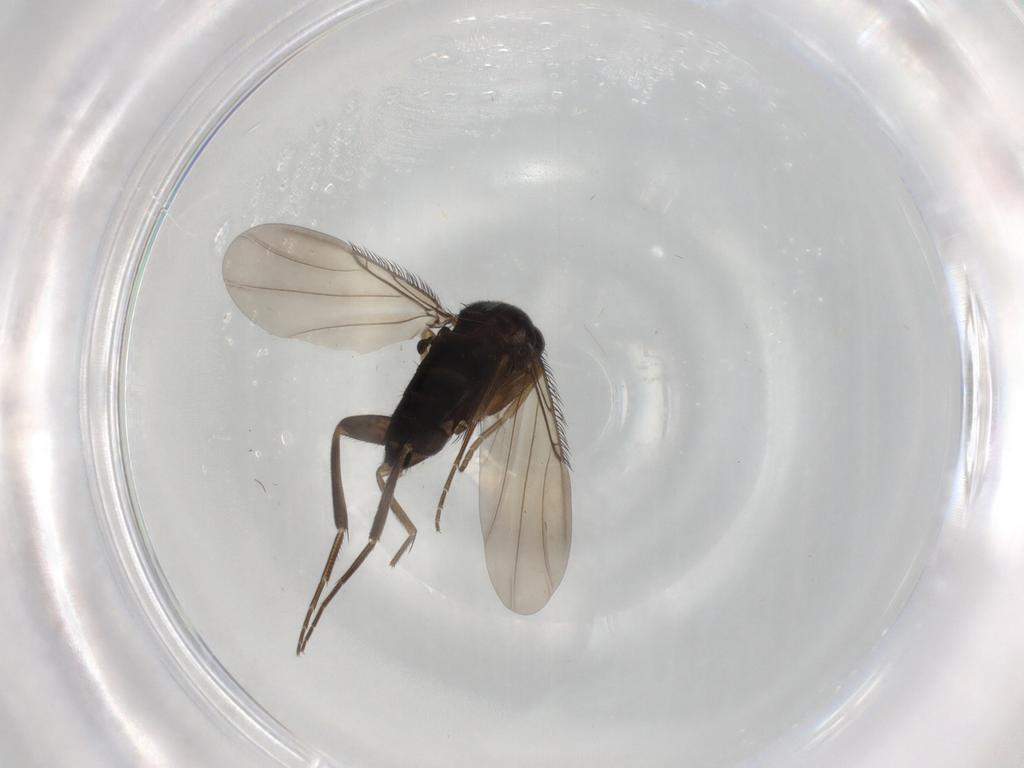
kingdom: Animalia
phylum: Arthropoda
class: Insecta
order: Diptera
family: Phoridae
